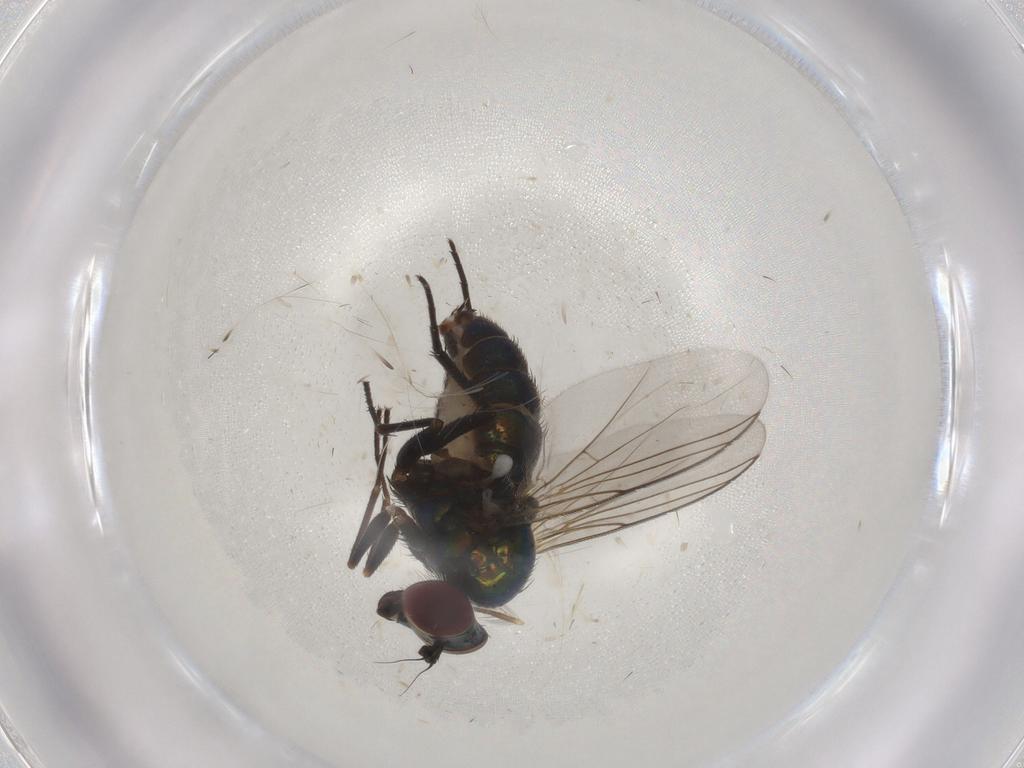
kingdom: Animalia
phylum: Arthropoda
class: Insecta
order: Diptera
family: Dolichopodidae
